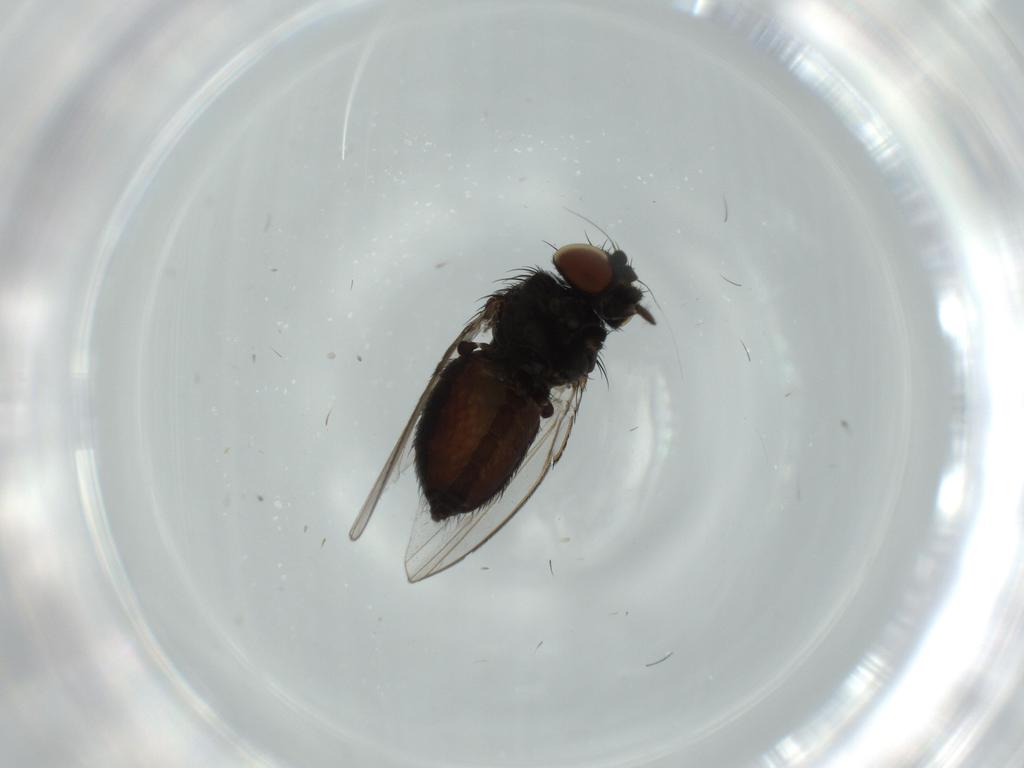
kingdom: Animalia
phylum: Arthropoda
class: Insecta
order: Diptera
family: Milichiidae
